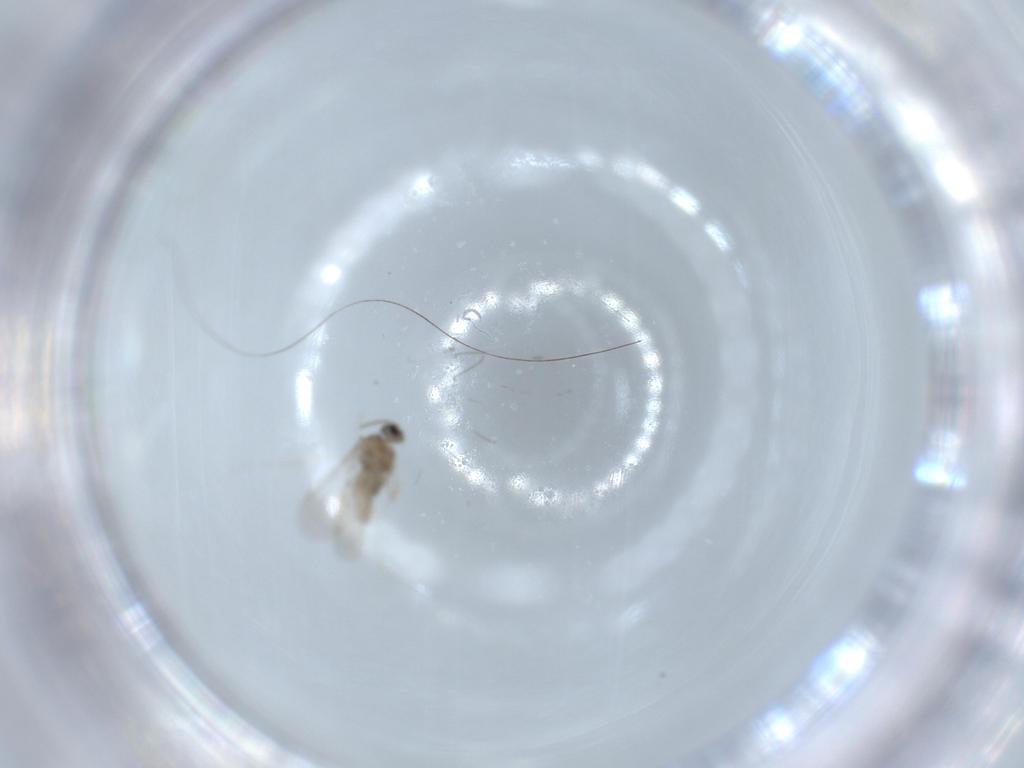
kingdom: Animalia
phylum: Arthropoda
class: Insecta
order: Diptera
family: Cecidomyiidae
